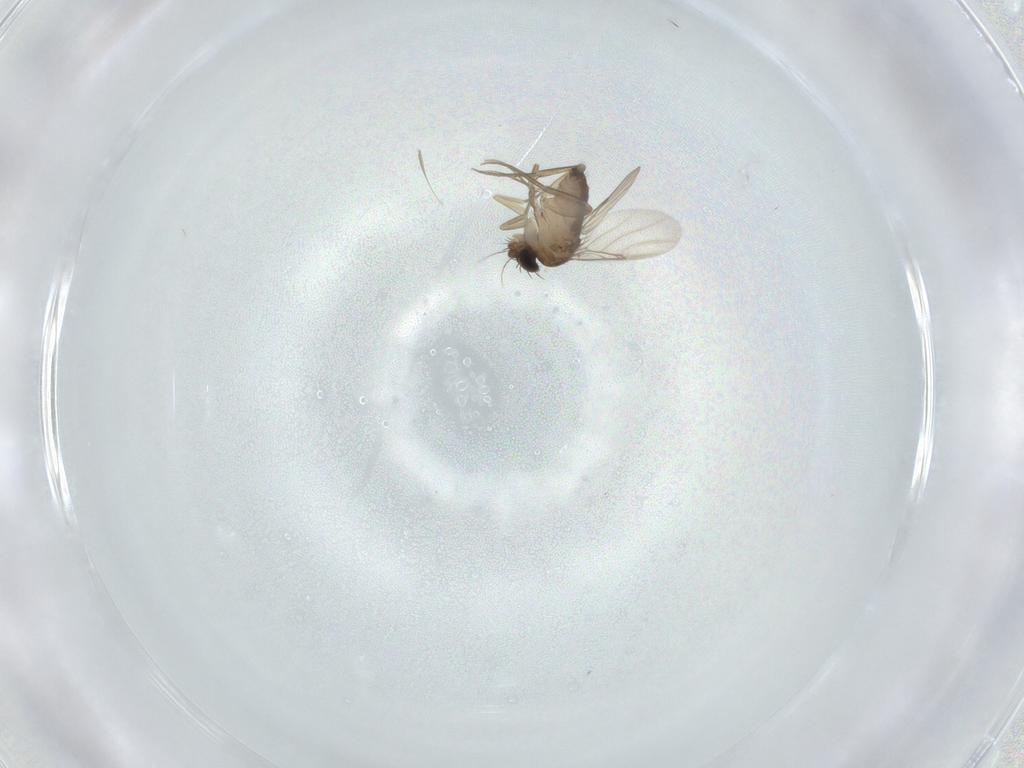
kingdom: Animalia
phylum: Arthropoda
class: Insecta
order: Diptera
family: Phoridae
